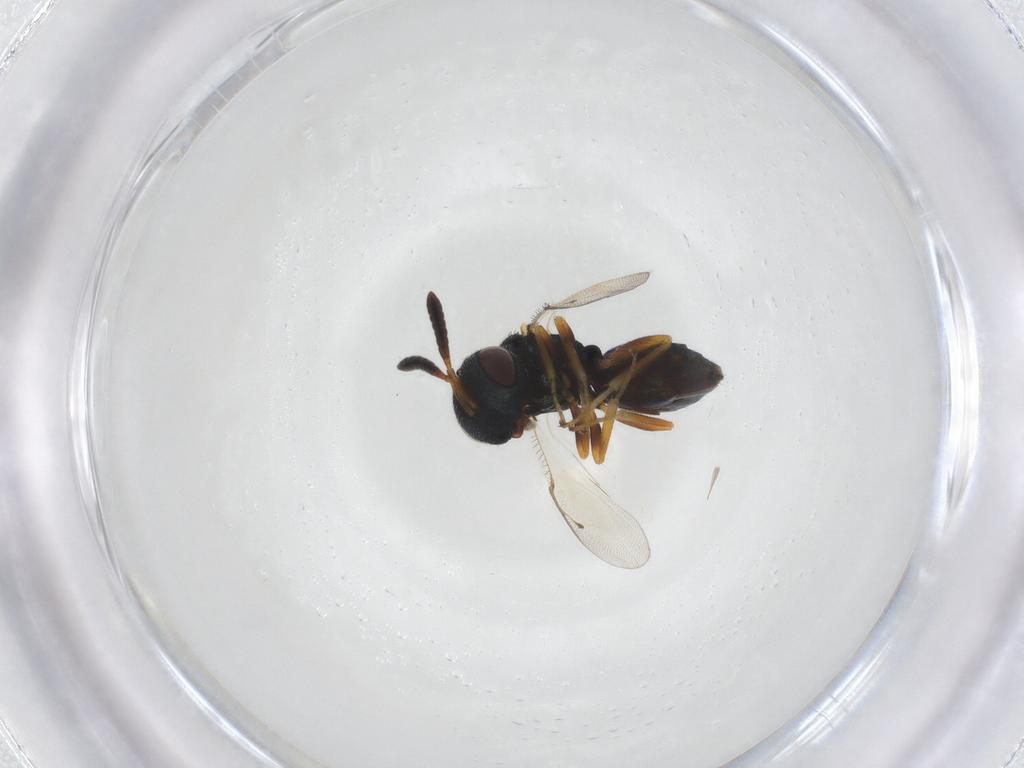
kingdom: Animalia
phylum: Arthropoda
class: Insecta
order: Hymenoptera
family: Pteromalidae
